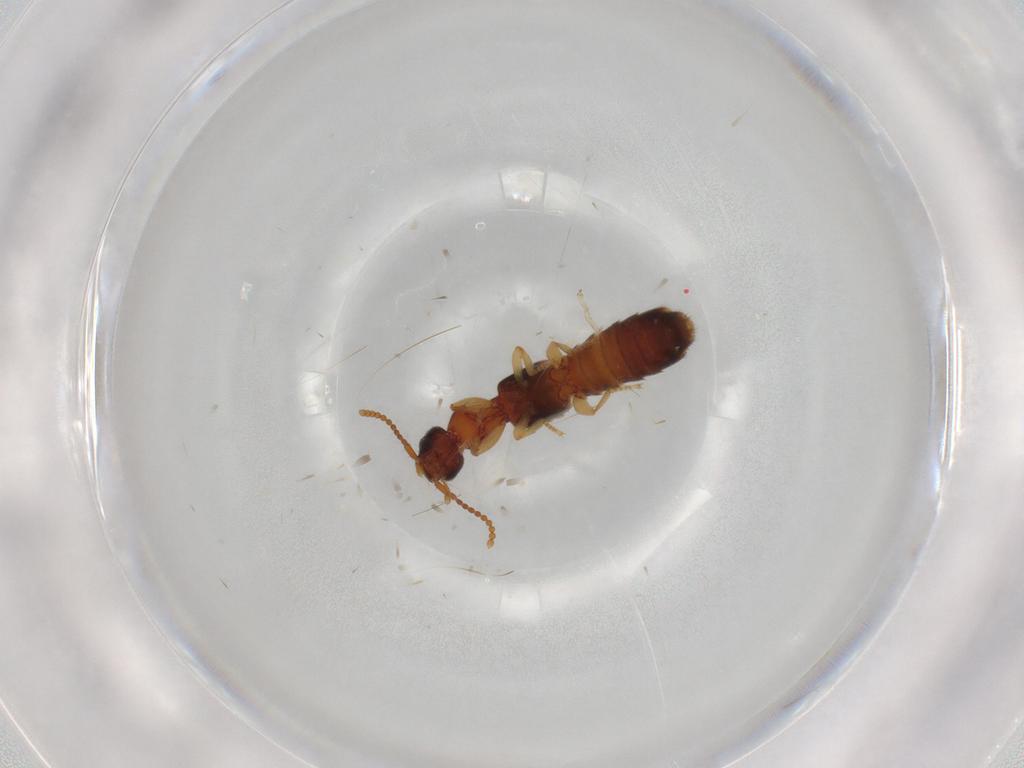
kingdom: Animalia
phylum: Arthropoda
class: Insecta
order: Coleoptera
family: Staphylinidae
